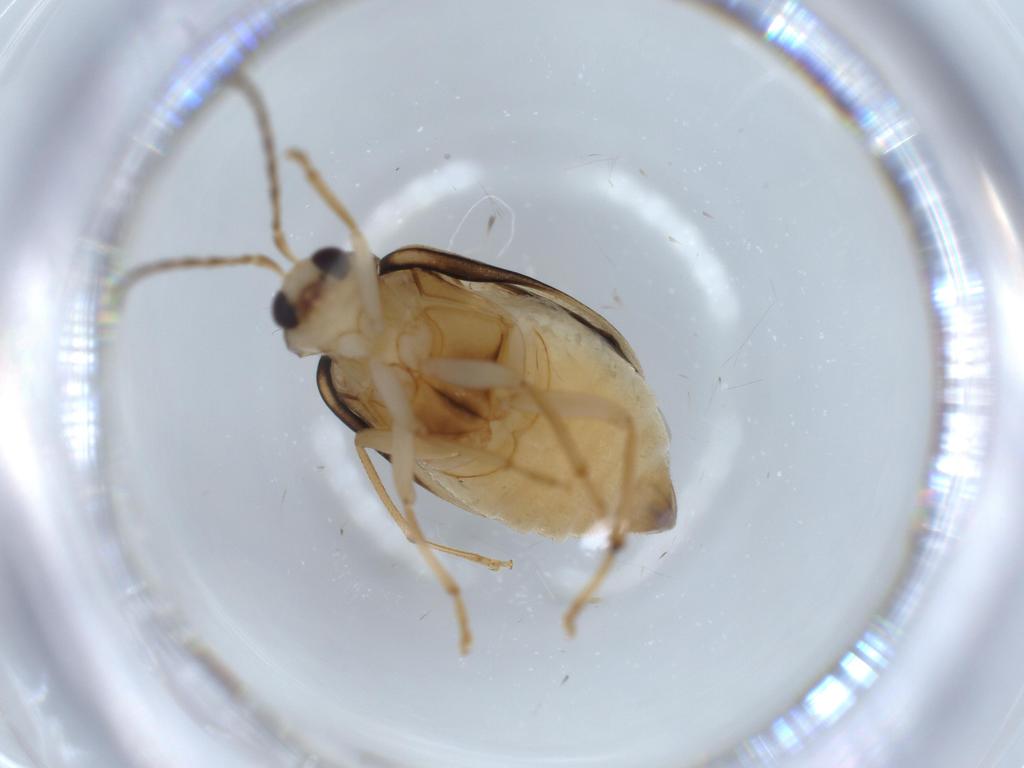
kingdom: Animalia
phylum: Arthropoda
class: Insecta
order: Coleoptera
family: Chrysomelidae
